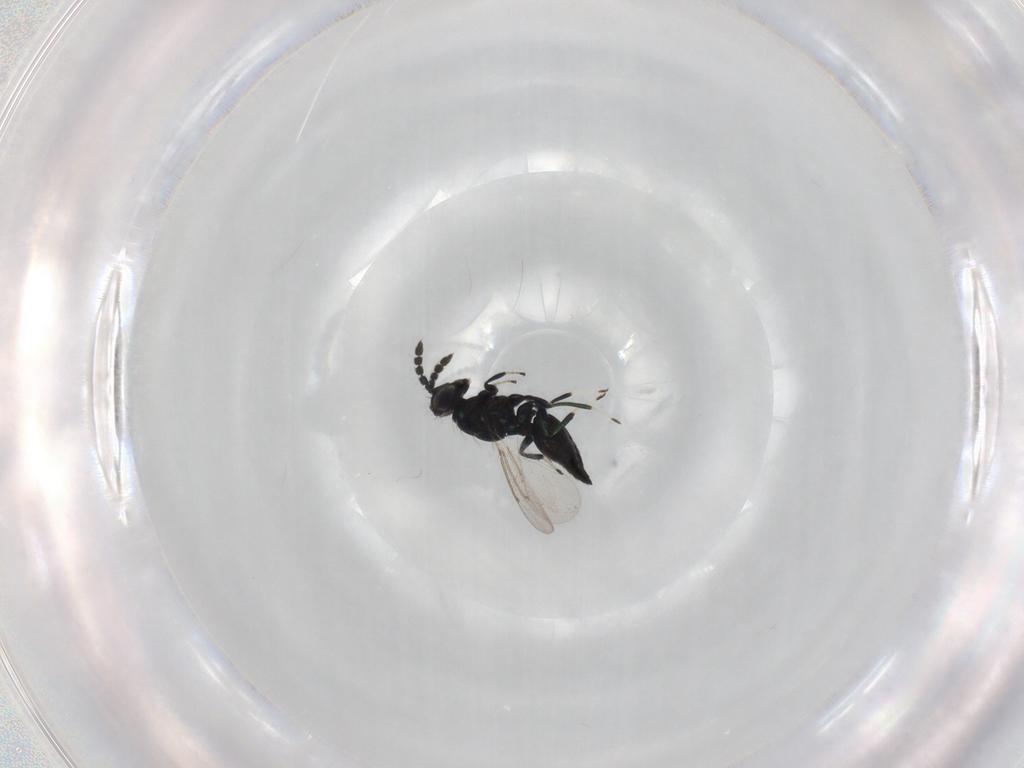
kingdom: Animalia
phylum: Arthropoda
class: Insecta
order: Hymenoptera
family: Eulophidae
